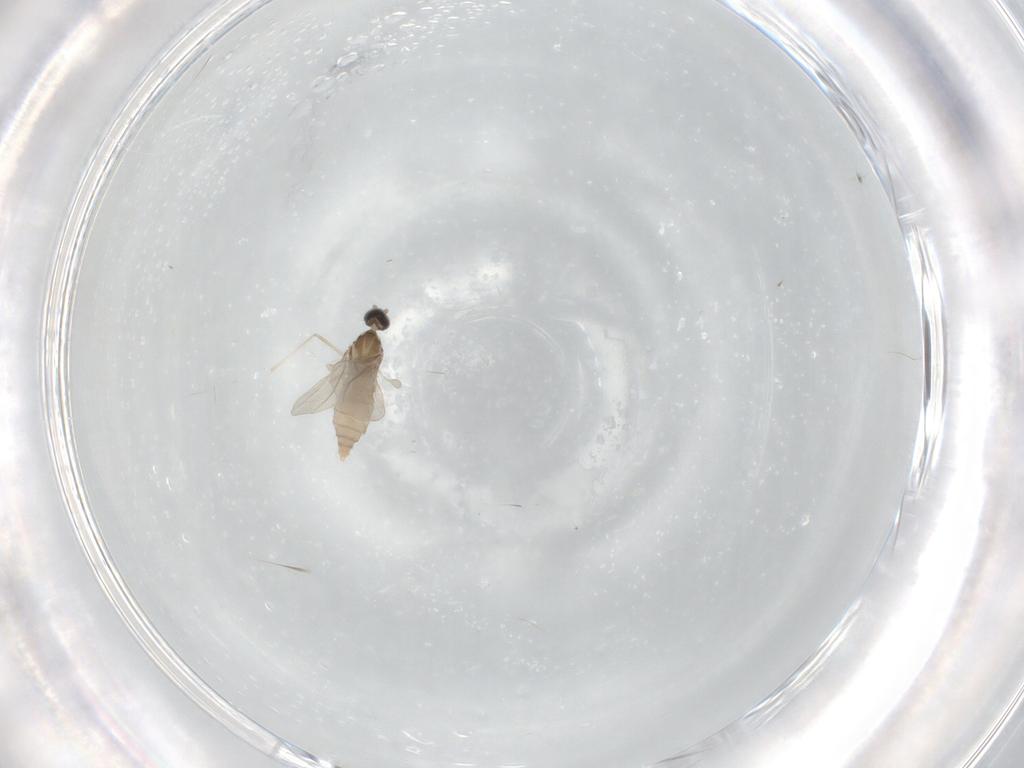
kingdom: Animalia
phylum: Arthropoda
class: Insecta
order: Diptera
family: Cecidomyiidae
